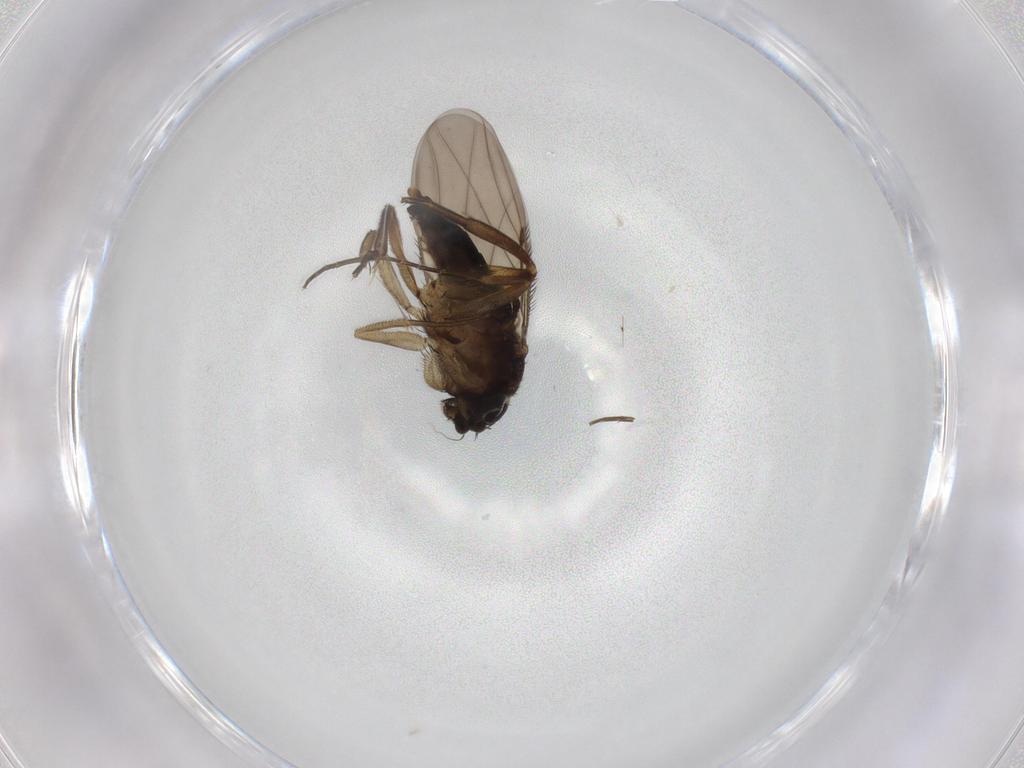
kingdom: Animalia
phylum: Arthropoda
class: Insecta
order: Diptera
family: Phoridae
